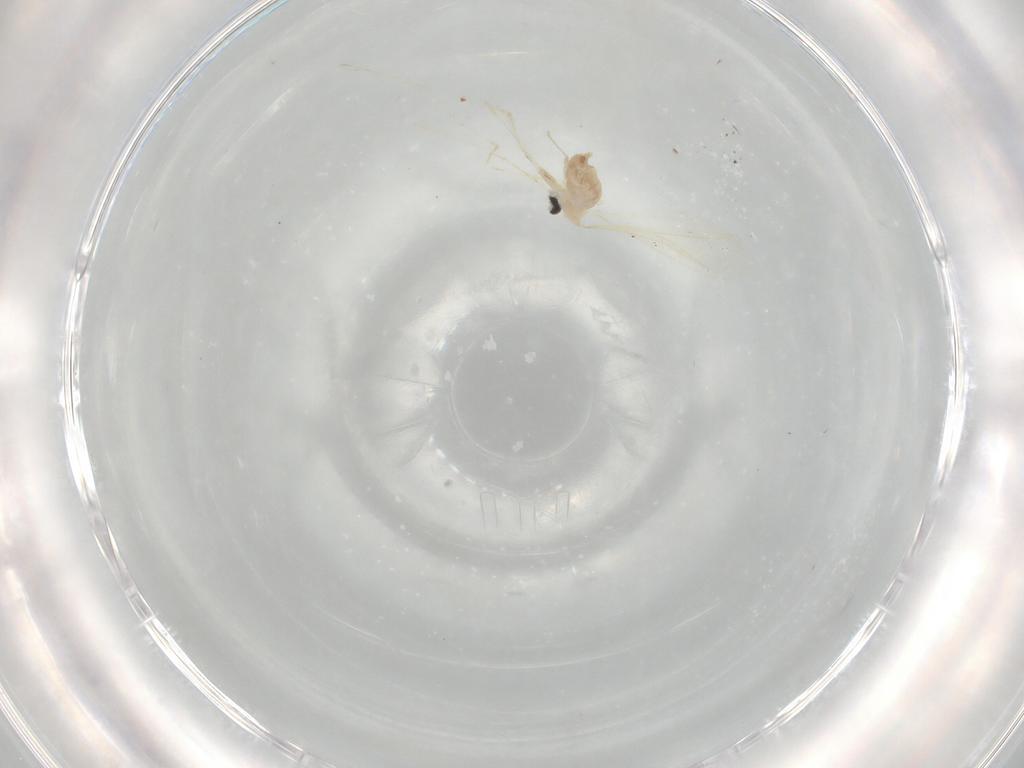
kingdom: Animalia
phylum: Arthropoda
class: Insecta
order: Diptera
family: Cecidomyiidae
